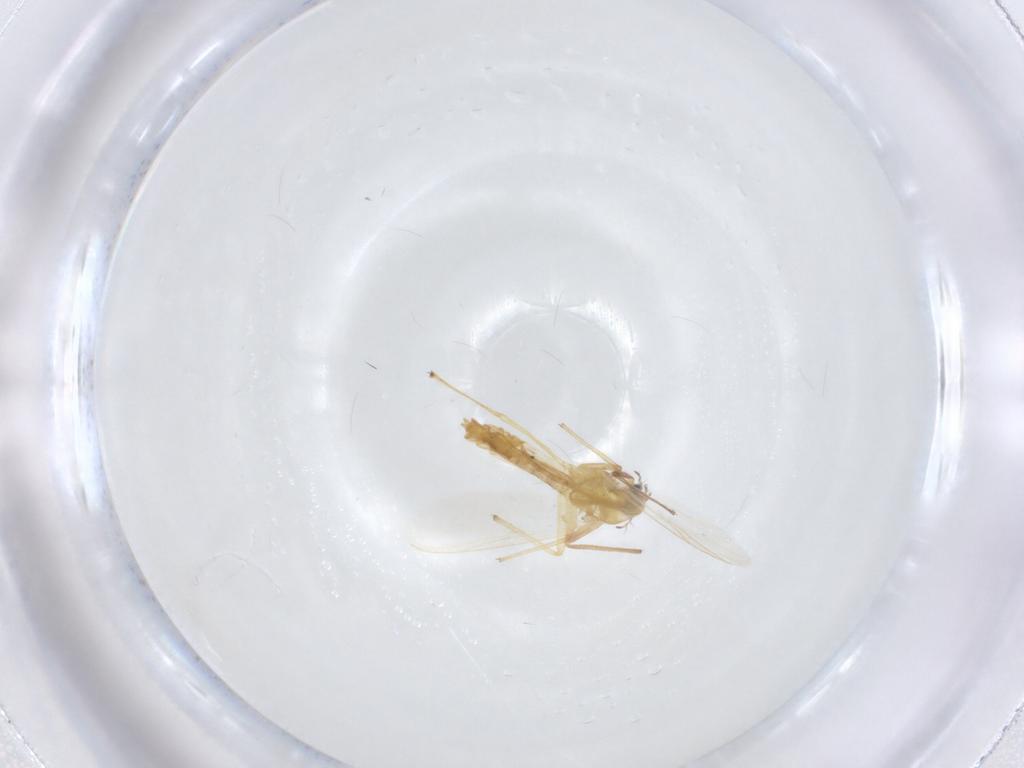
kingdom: Animalia
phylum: Arthropoda
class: Insecta
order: Diptera
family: Chironomidae
